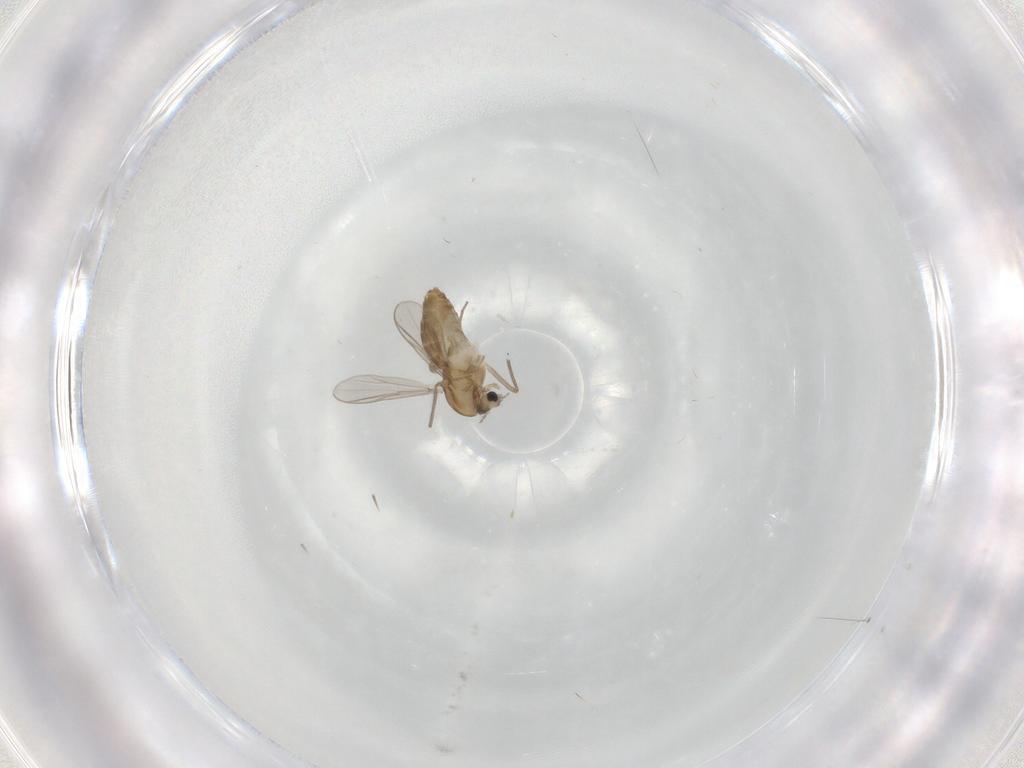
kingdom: Animalia
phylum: Arthropoda
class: Insecta
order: Diptera
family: Chironomidae
